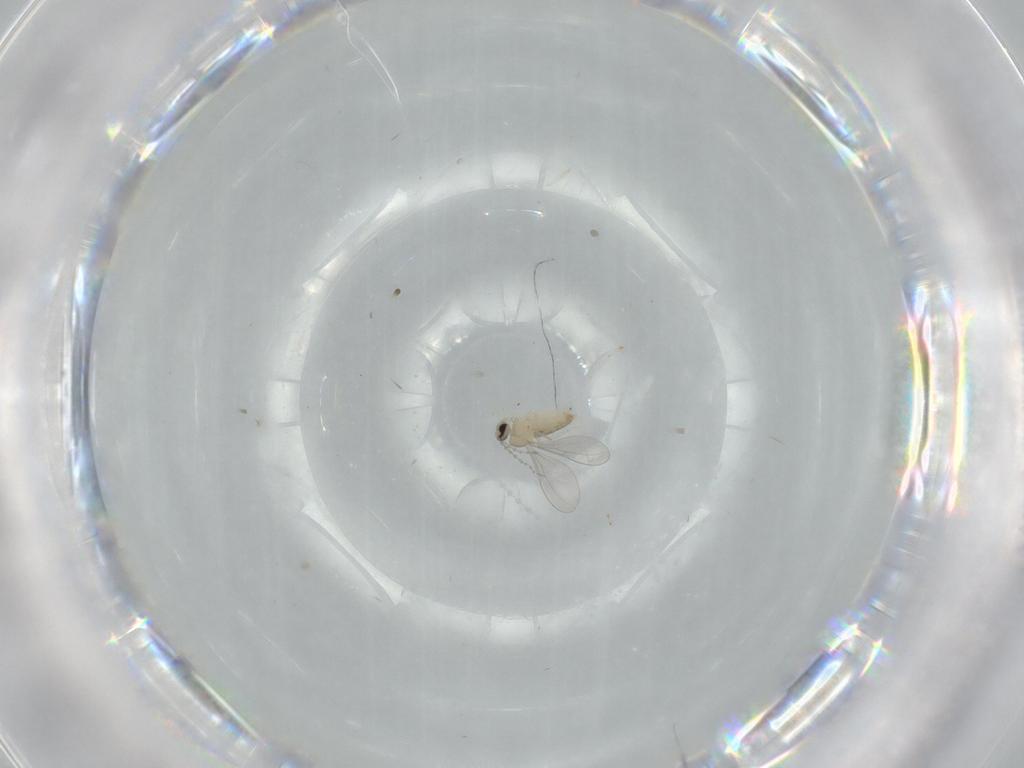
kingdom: Animalia
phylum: Arthropoda
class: Insecta
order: Diptera
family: Cecidomyiidae
